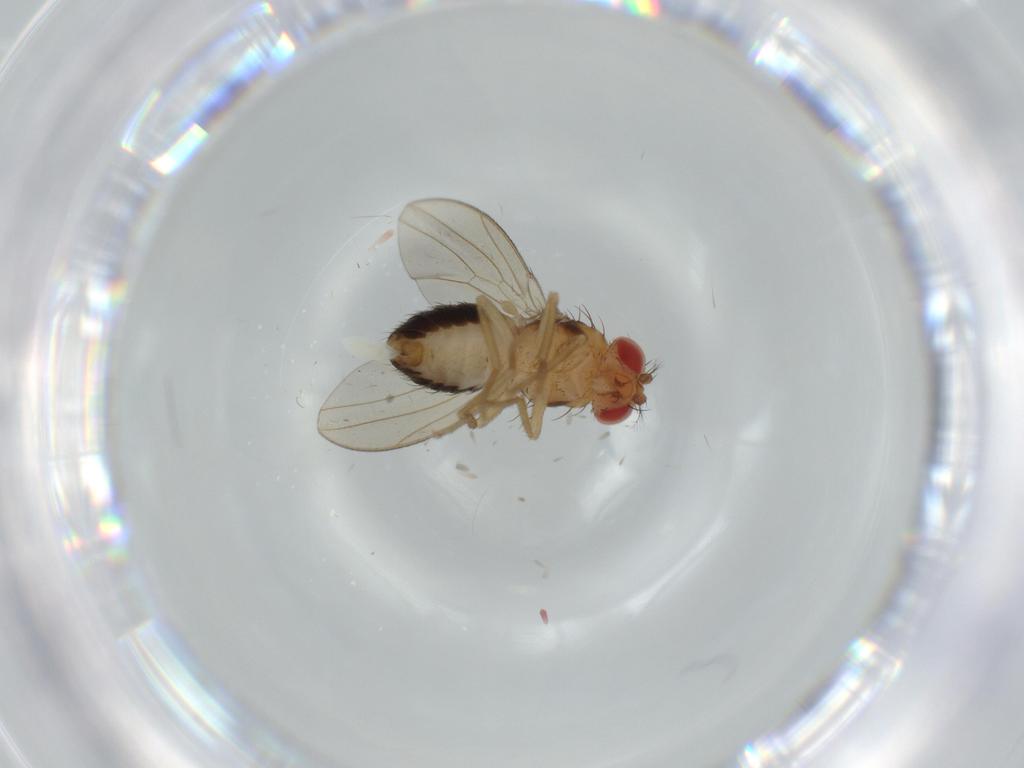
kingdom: Animalia
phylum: Arthropoda
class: Insecta
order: Diptera
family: Drosophilidae
